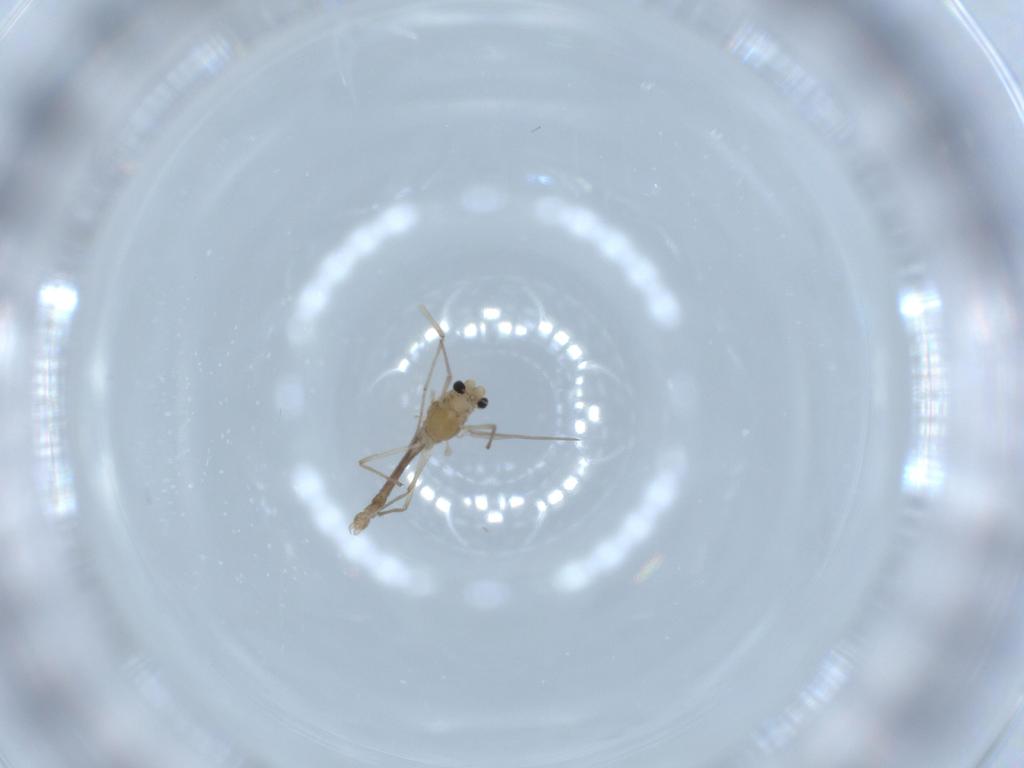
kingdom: Animalia
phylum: Arthropoda
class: Insecta
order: Diptera
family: Chironomidae
